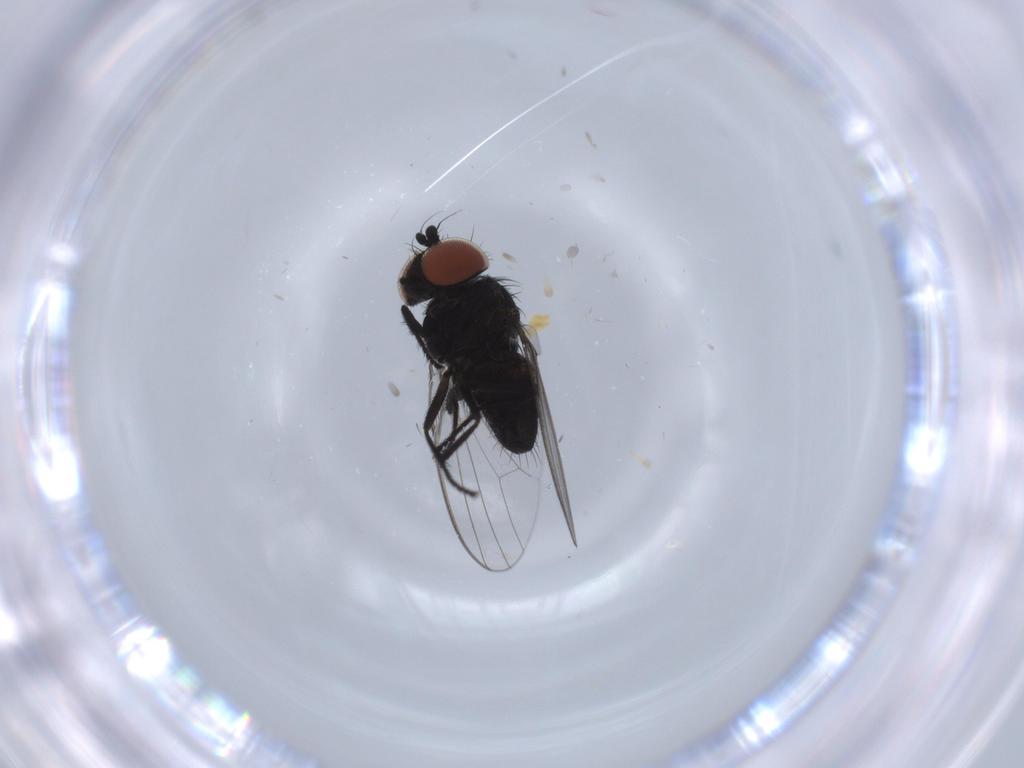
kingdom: Animalia
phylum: Arthropoda
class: Insecta
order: Diptera
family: Milichiidae
